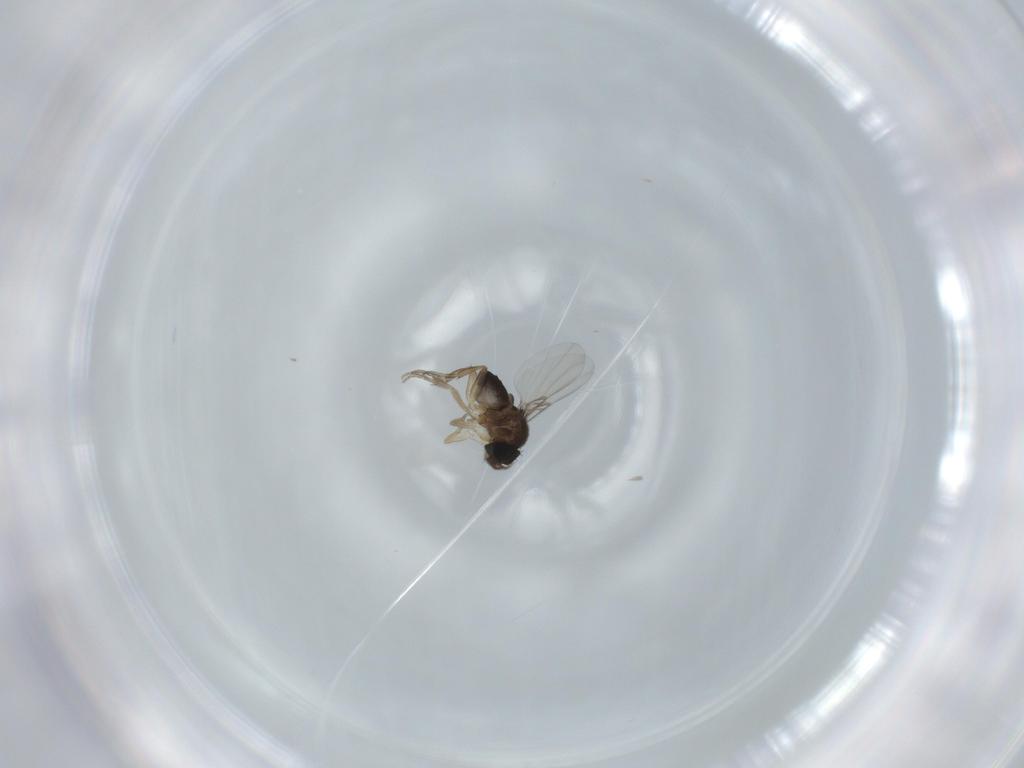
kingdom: Animalia
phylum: Arthropoda
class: Insecta
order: Diptera
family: Phoridae
